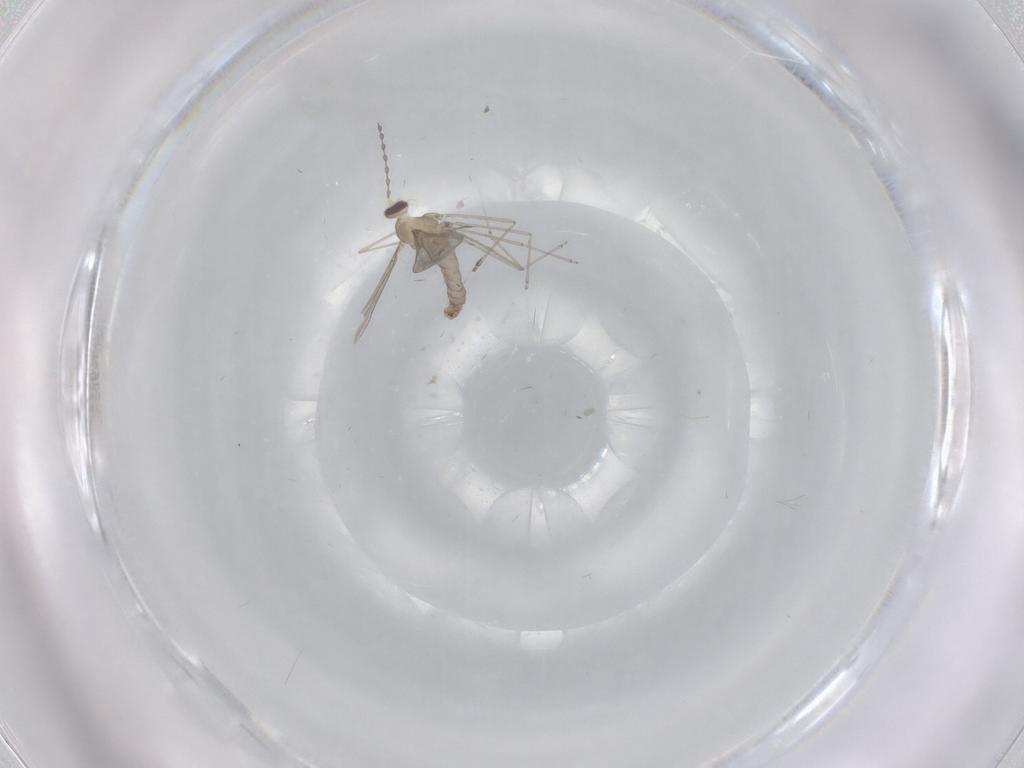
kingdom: Animalia
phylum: Arthropoda
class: Insecta
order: Diptera
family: Cecidomyiidae
